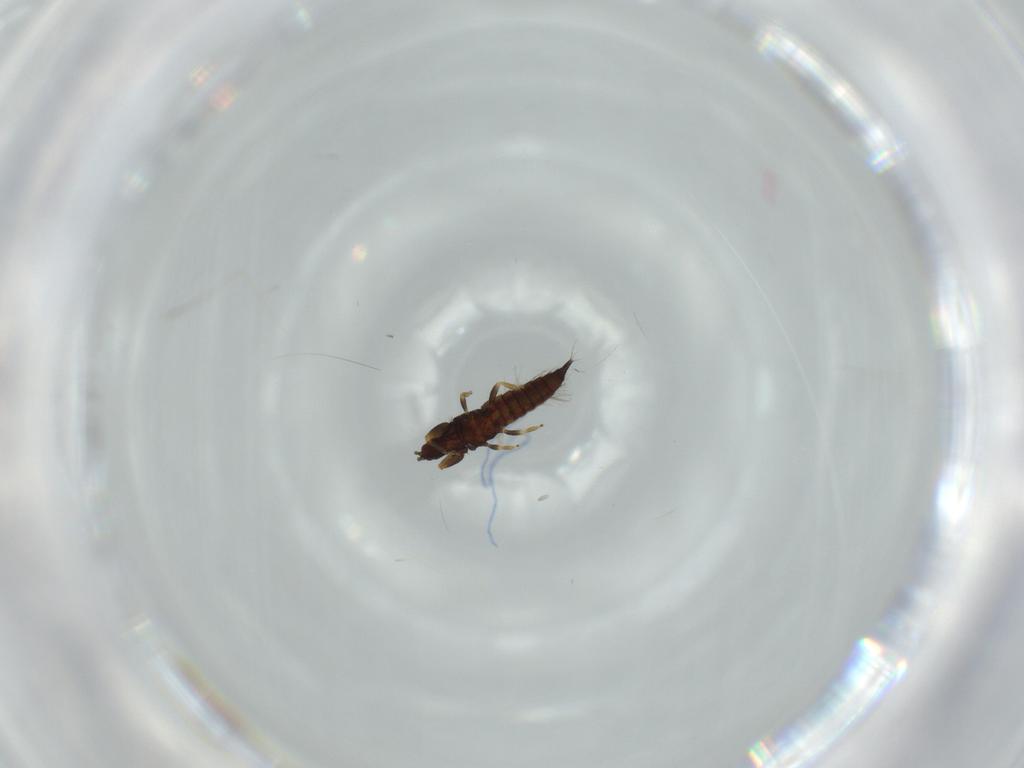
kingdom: Animalia
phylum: Arthropoda
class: Insecta
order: Thysanoptera
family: Phlaeothripidae
